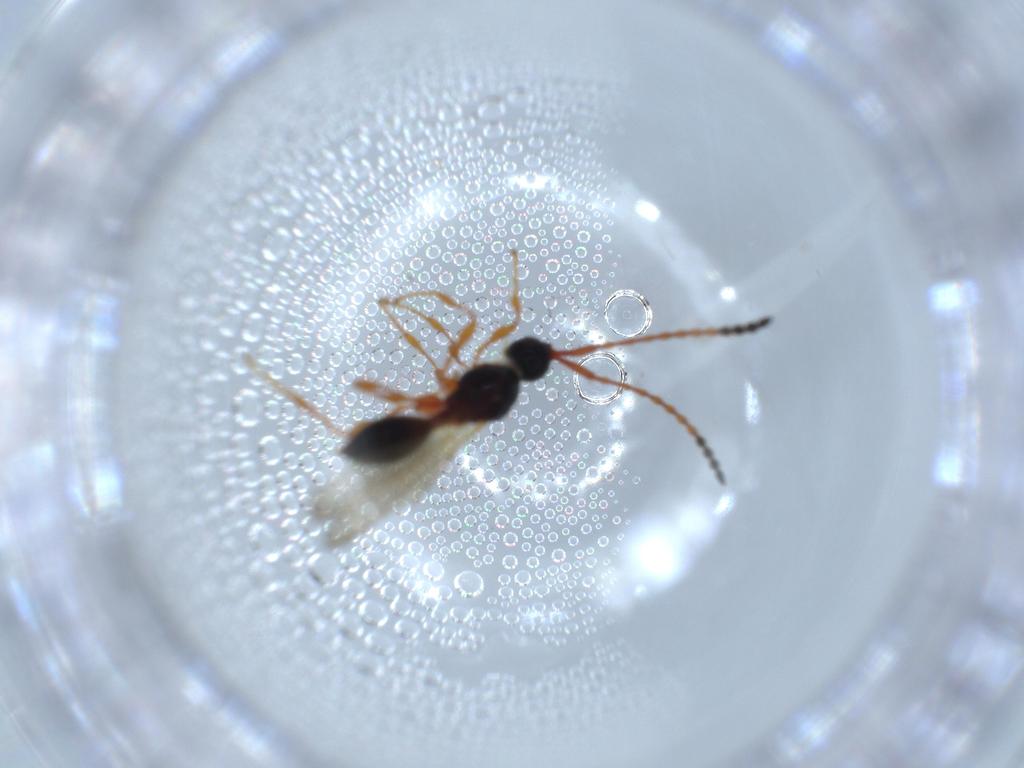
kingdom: Animalia
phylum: Arthropoda
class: Insecta
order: Hymenoptera
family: Diapriidae
